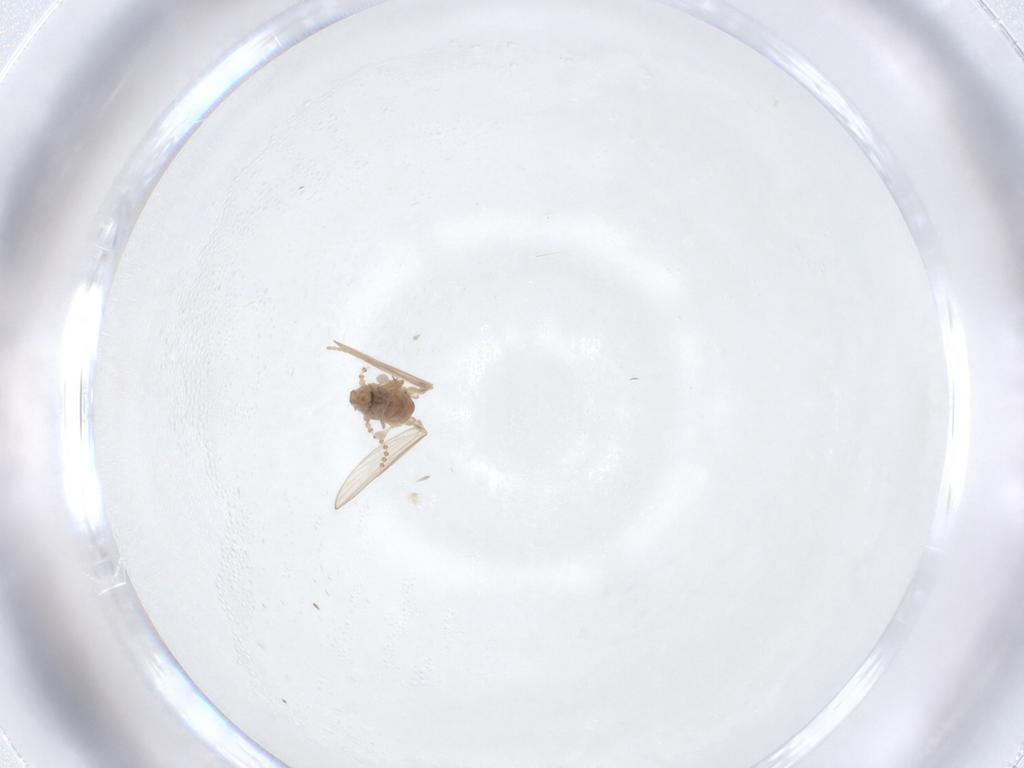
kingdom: Animalia
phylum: Arthropoda
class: Insecta
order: Diptera
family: Psychodidae
